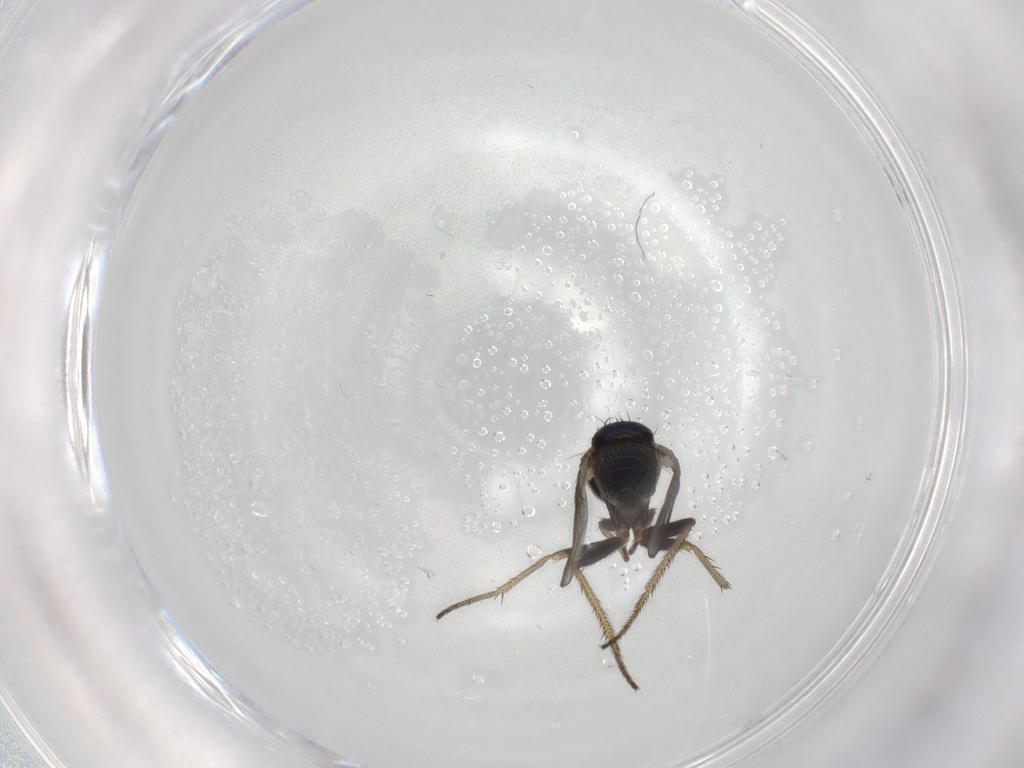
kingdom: Animalia
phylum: Arthropoda
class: Insecta
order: Diptera
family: Dolichopodidae
